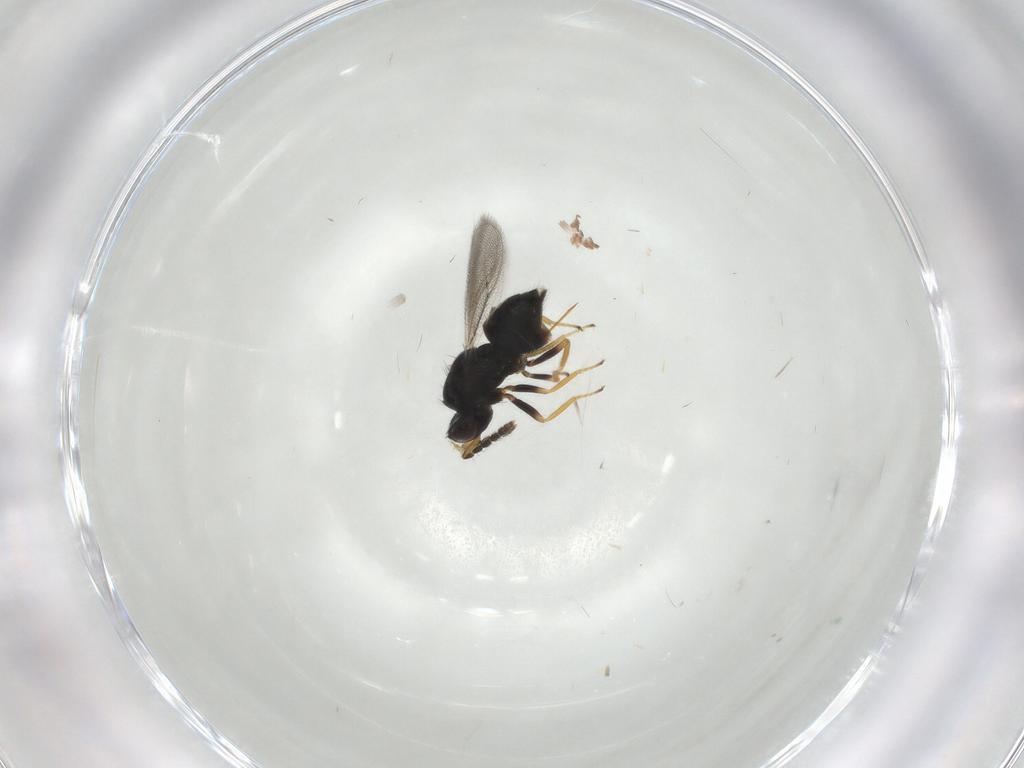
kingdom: Animalia
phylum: Arthropoda
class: Insecta
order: Hymenoptera
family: Eulophidae
